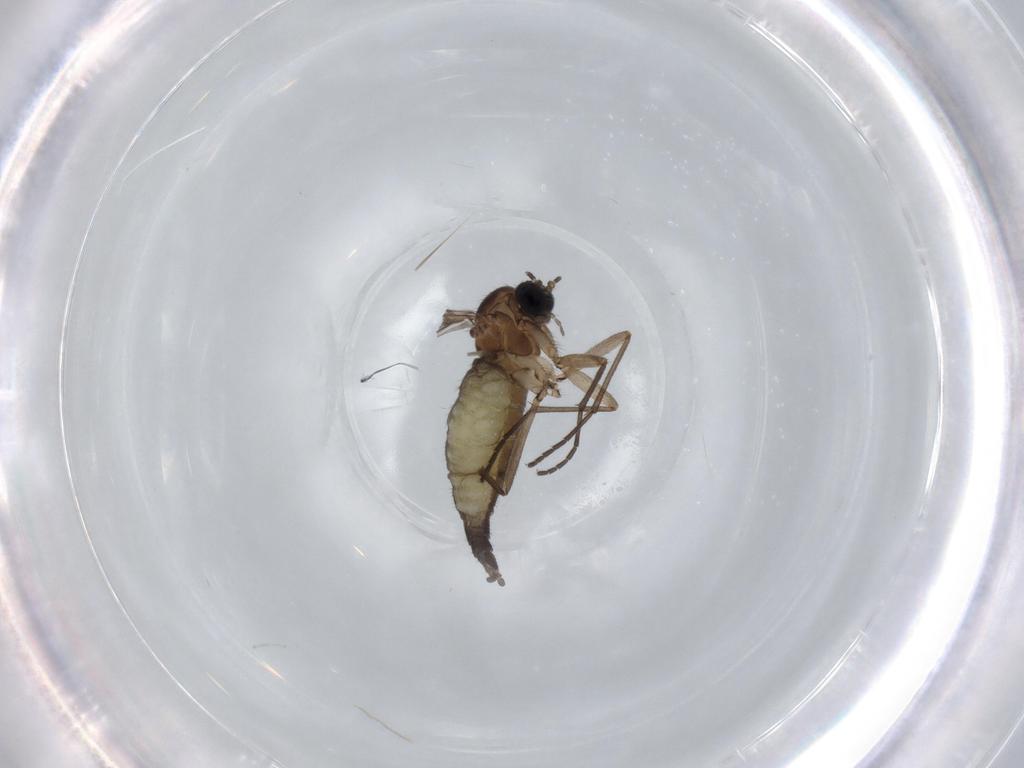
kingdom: Animalia
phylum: Arthropoda
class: Insecta
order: Diptera
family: Sciaridae
